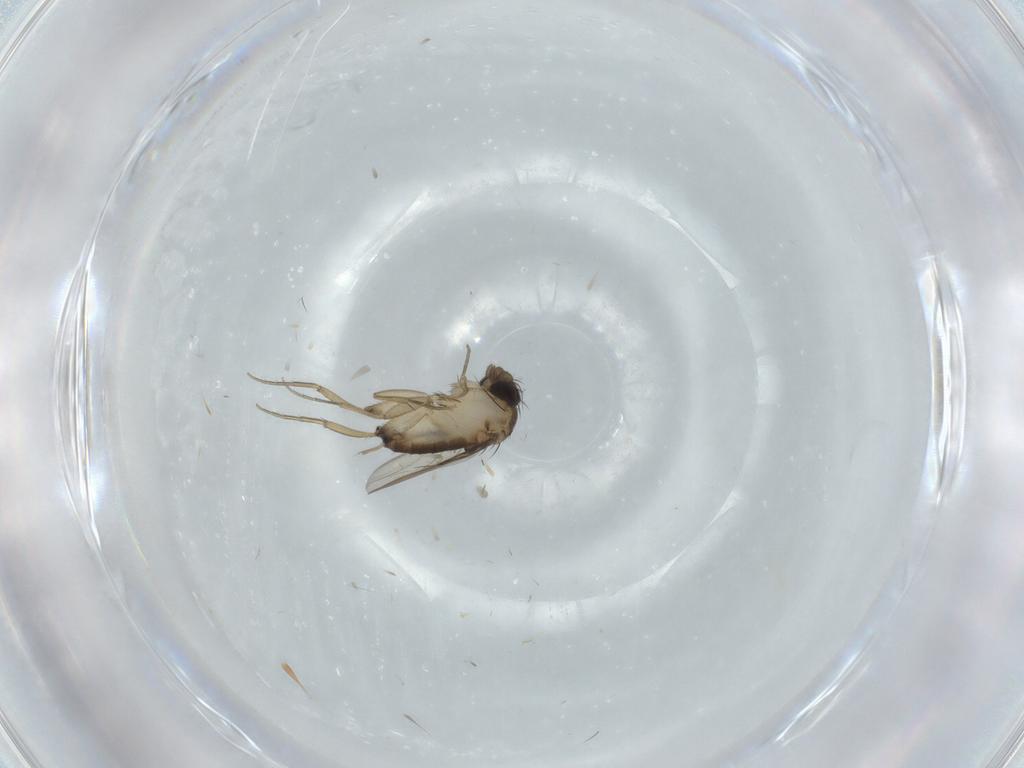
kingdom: Animalia
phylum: Arthropoda
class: Insecta
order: Diptera
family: Phoridae
